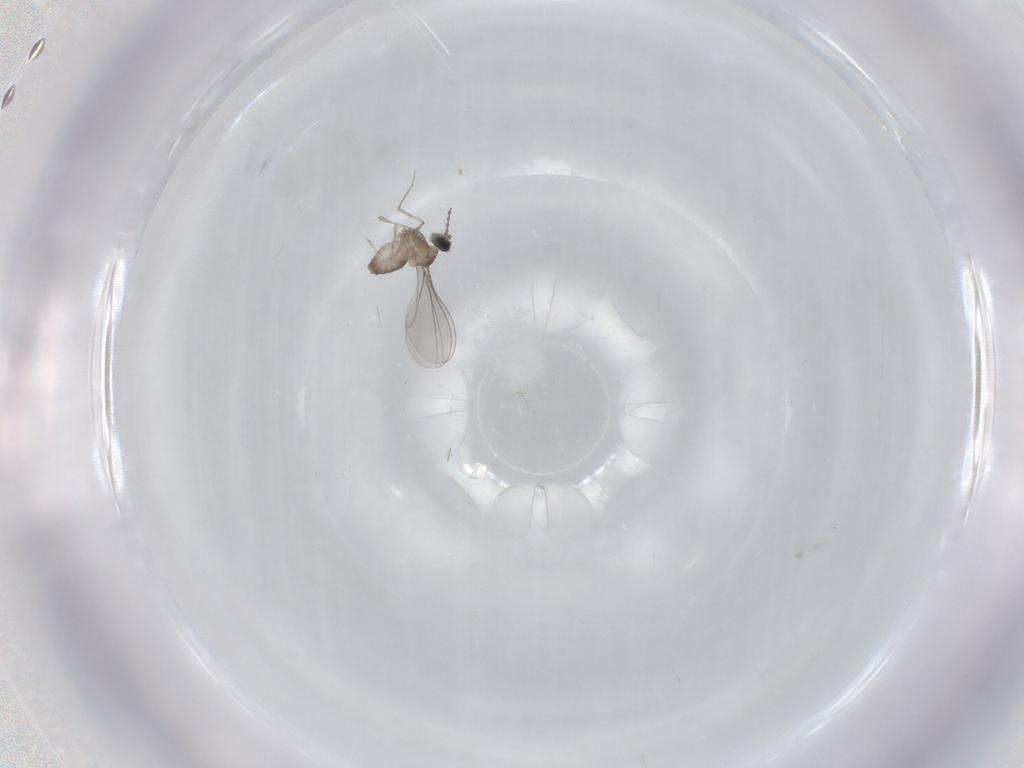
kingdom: Animalia
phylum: Arthropoda
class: Insecta
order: Diptera
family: Cecidomyiidae
